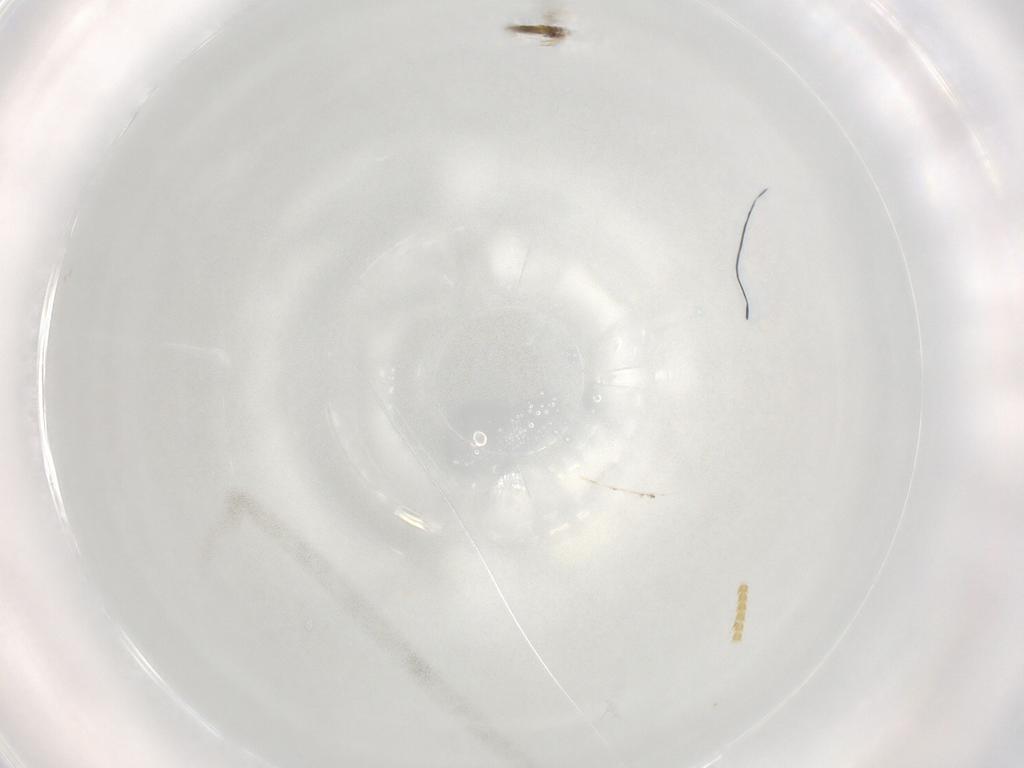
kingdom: Animalia
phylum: Arthropoda
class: Insecta
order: Hymenoptera
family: Aphelinidae
